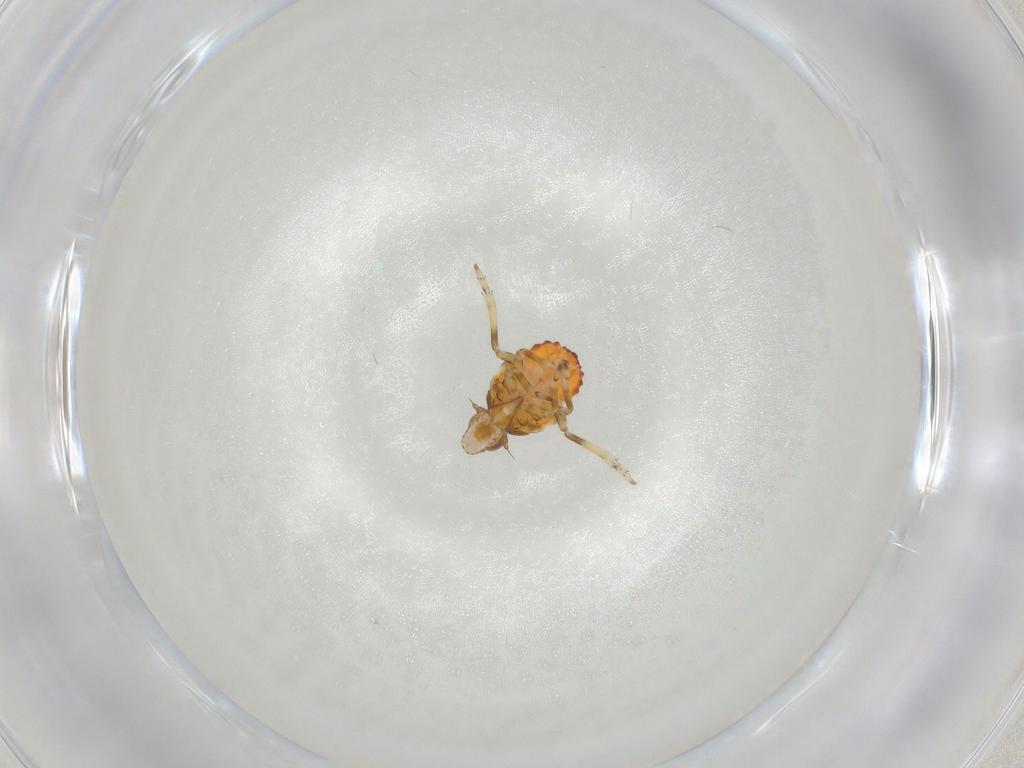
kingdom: Animalia
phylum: Arthropoda
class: Insecta
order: Hemiptera
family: Tropiduchidae
